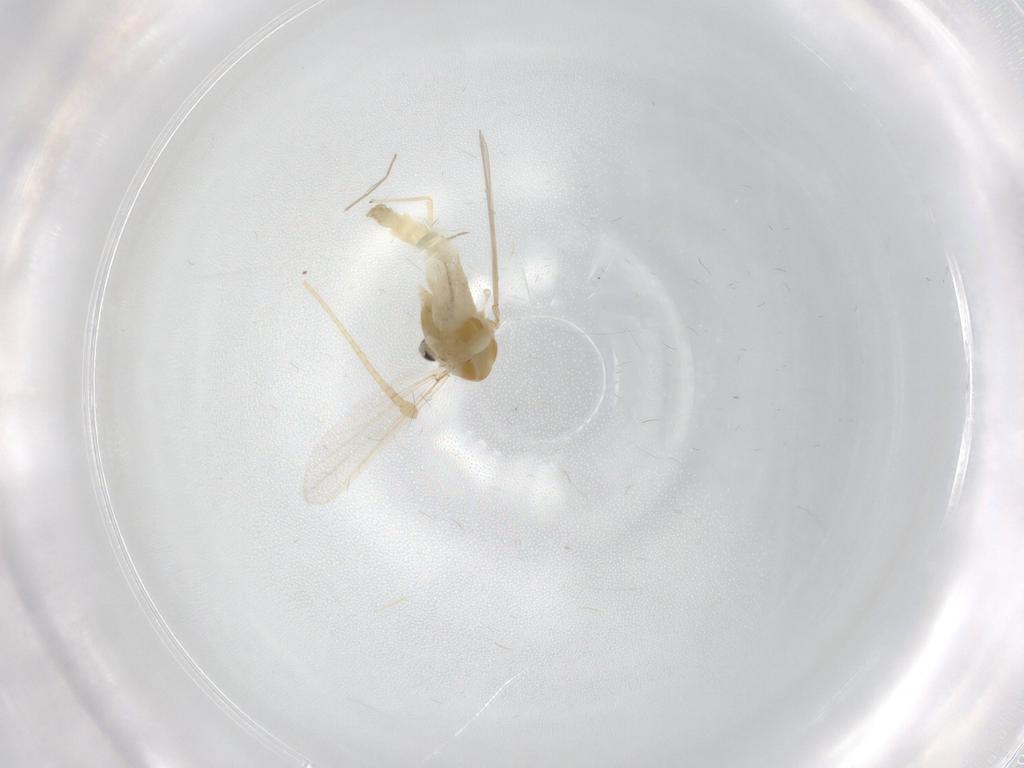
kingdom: Animalia
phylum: Arthropoda
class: Insecta
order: Diptera
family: Chironomidae
